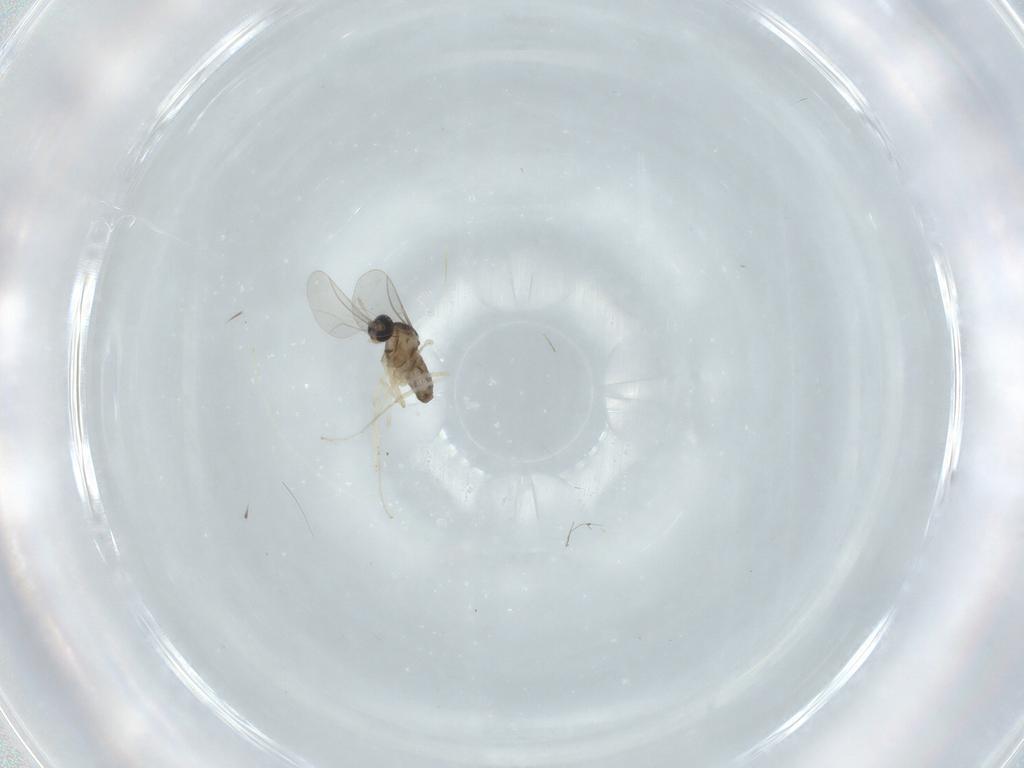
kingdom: Animalia
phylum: Arthropoda
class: Insecta
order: Diptera
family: Cecidomyiidae
